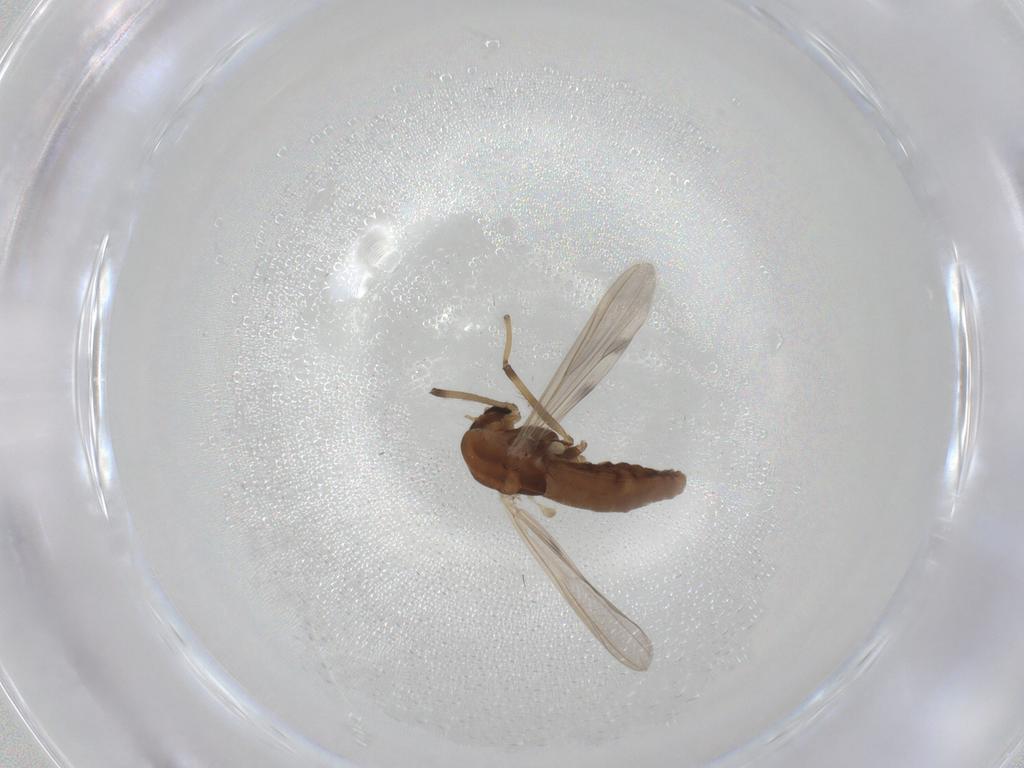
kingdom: Animalia
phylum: Arthropoda
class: Insecta
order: Diptera
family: Chironomidae
